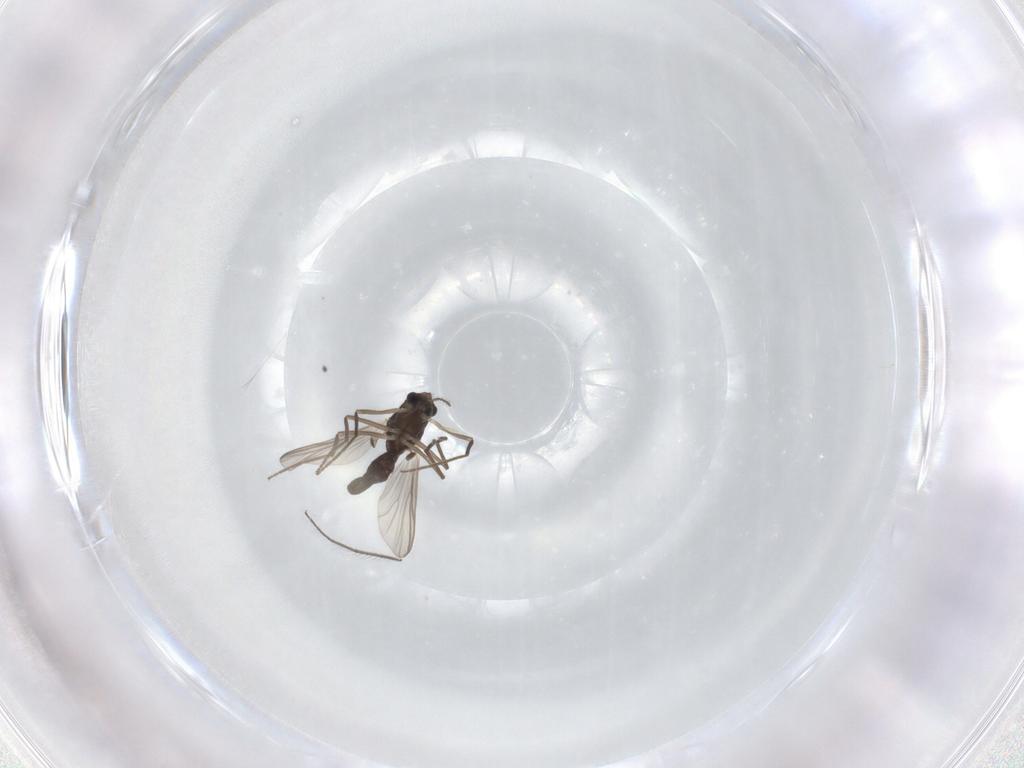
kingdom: Animalia
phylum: Arthropoda
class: Insecta
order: Diptera
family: Chironomidae
